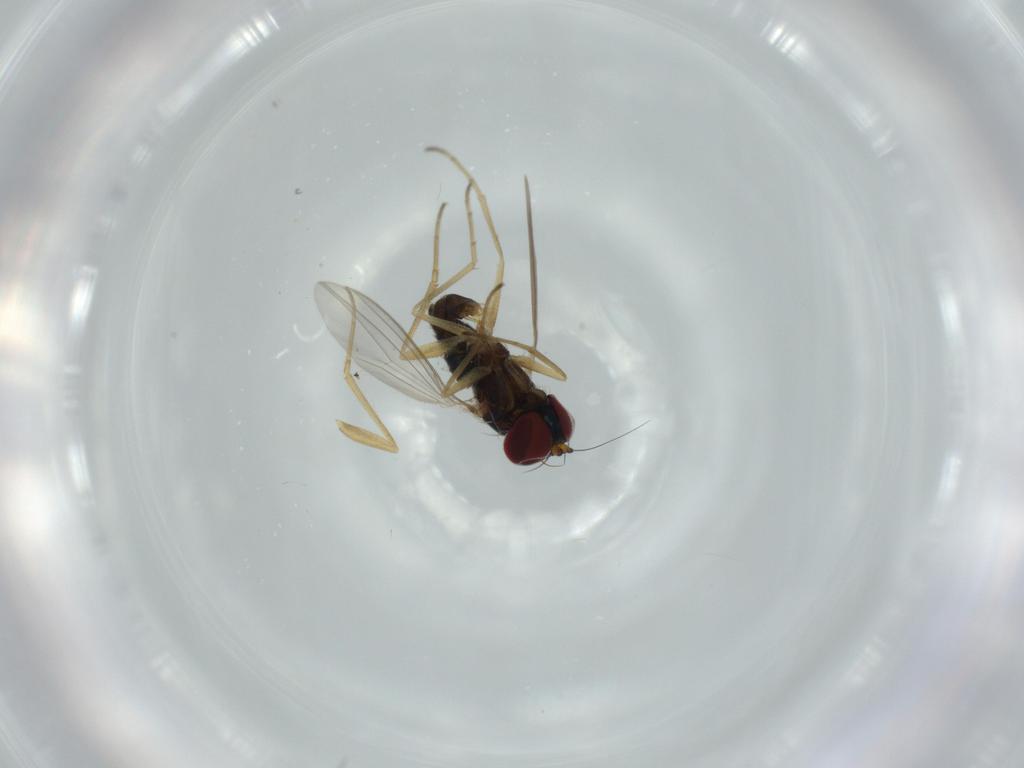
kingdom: Animalia
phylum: Arthropoda
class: Insecta
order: Diptera
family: Dolichopodidae
